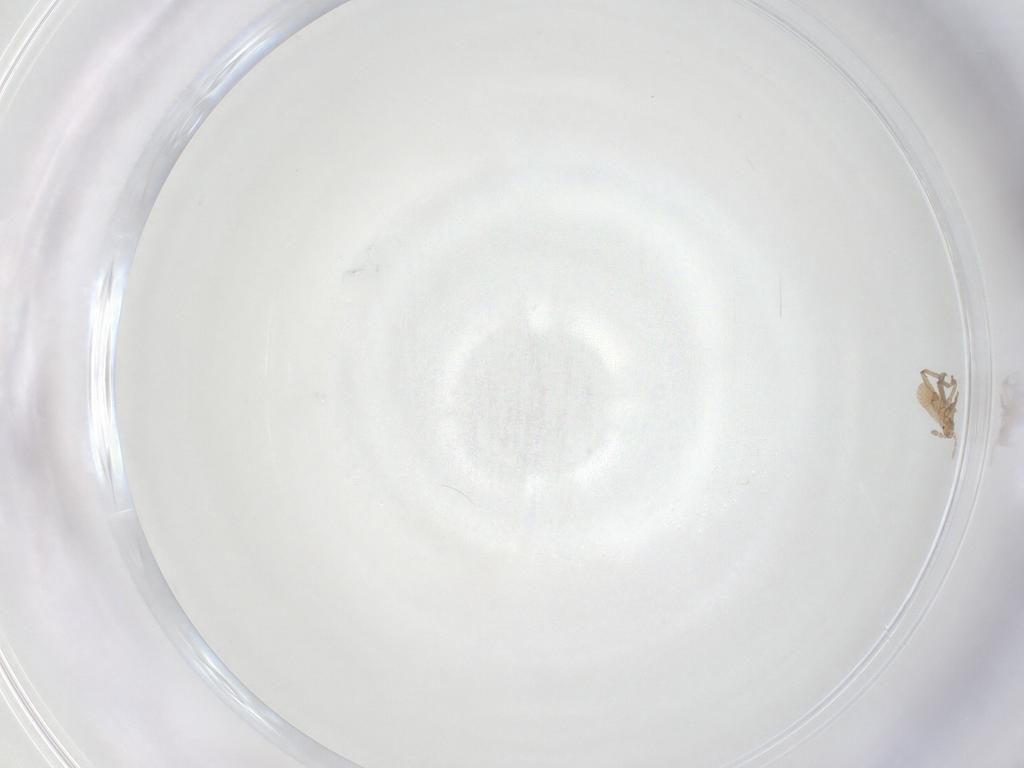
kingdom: Animalia
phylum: Arthropoda
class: Insecta
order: Hemiptera
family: Aphididae
